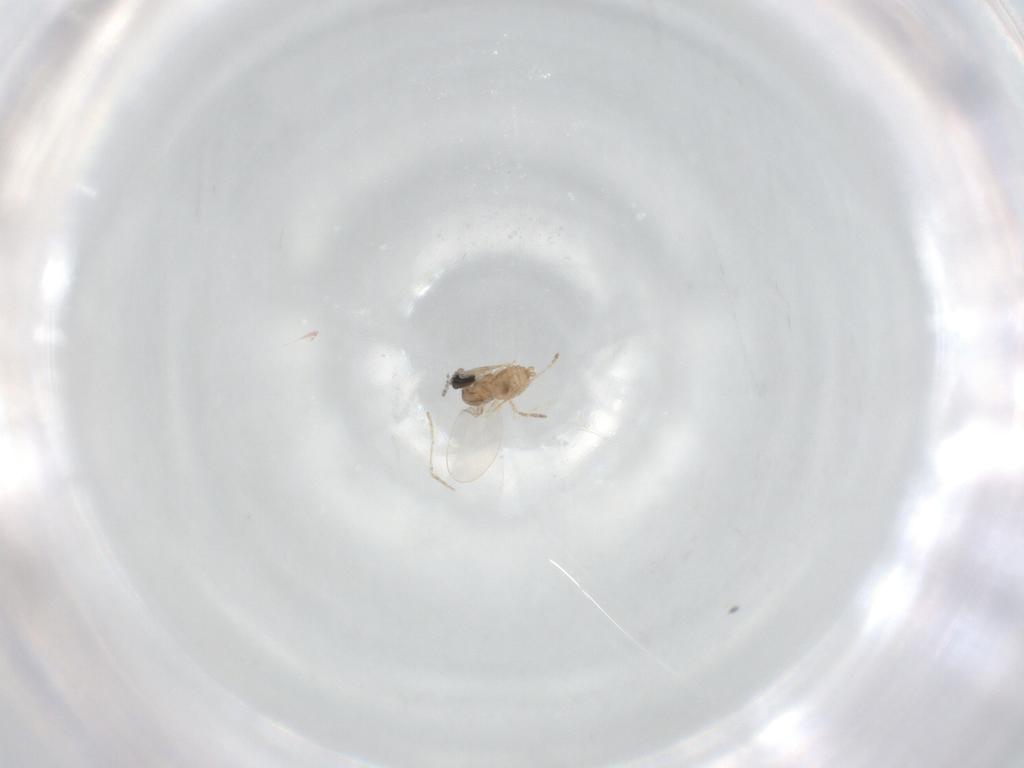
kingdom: Animalia
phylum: Arthropoda
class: Insecta
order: Diptera
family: Cecidomyiidae
